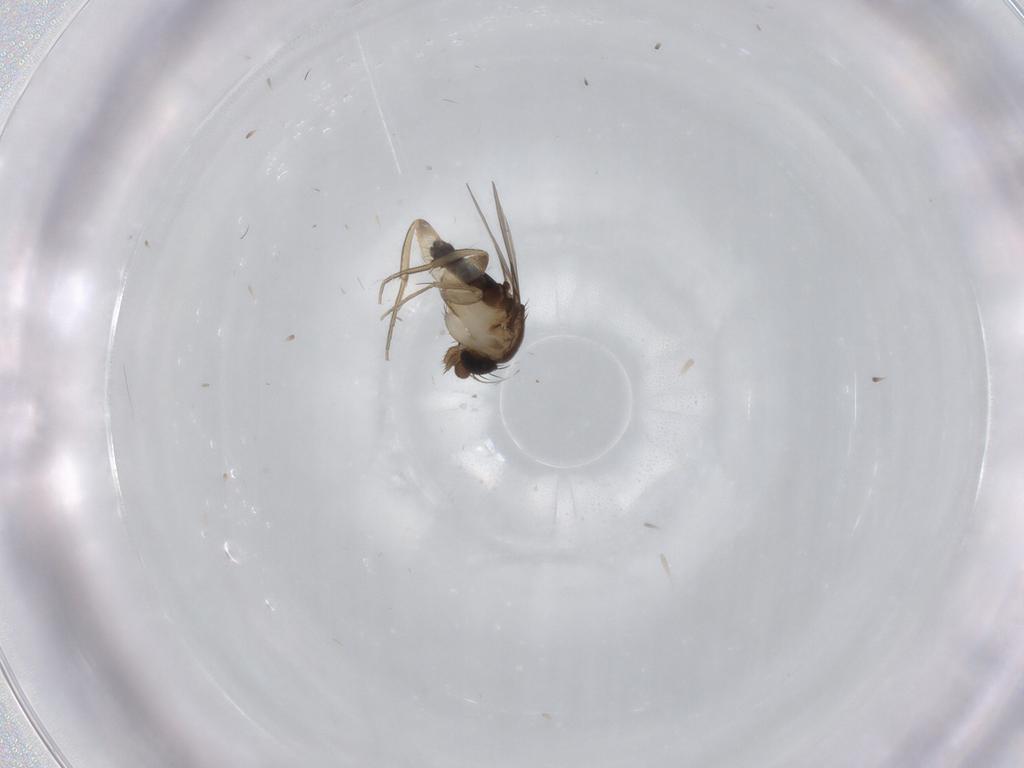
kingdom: Animalia
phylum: Arthropoda
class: Insecta
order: Diptera
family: Phoridae
